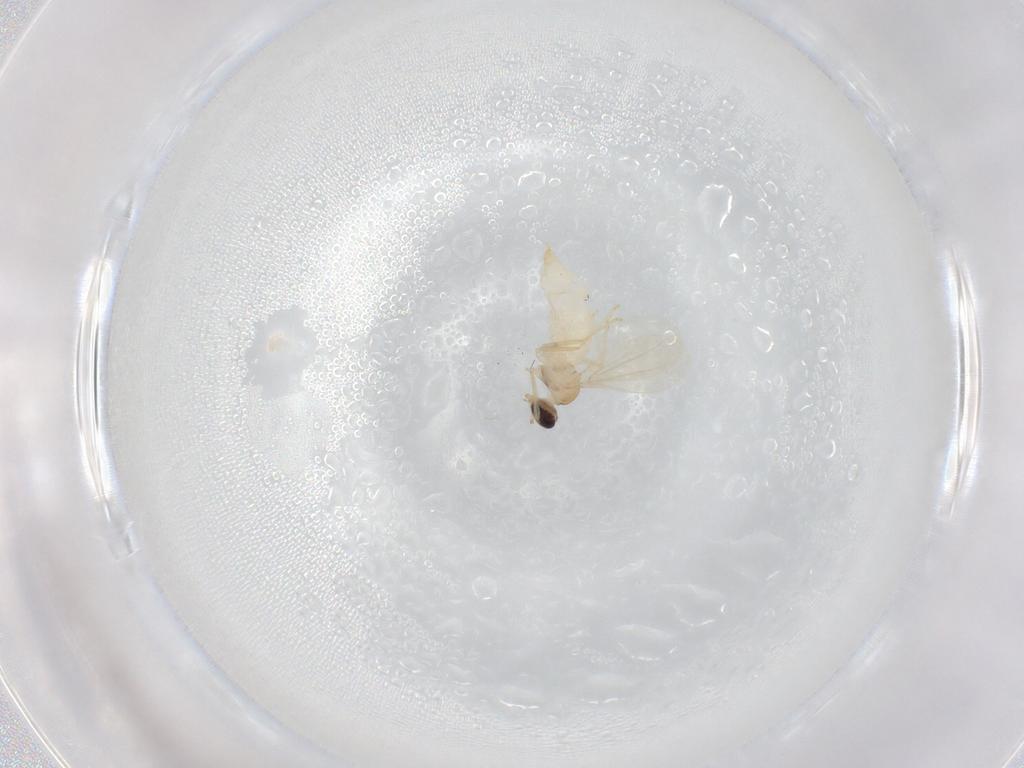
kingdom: Animalia
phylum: Arthropoda
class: Insecta
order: Diptera
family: Cecidomyiidae
